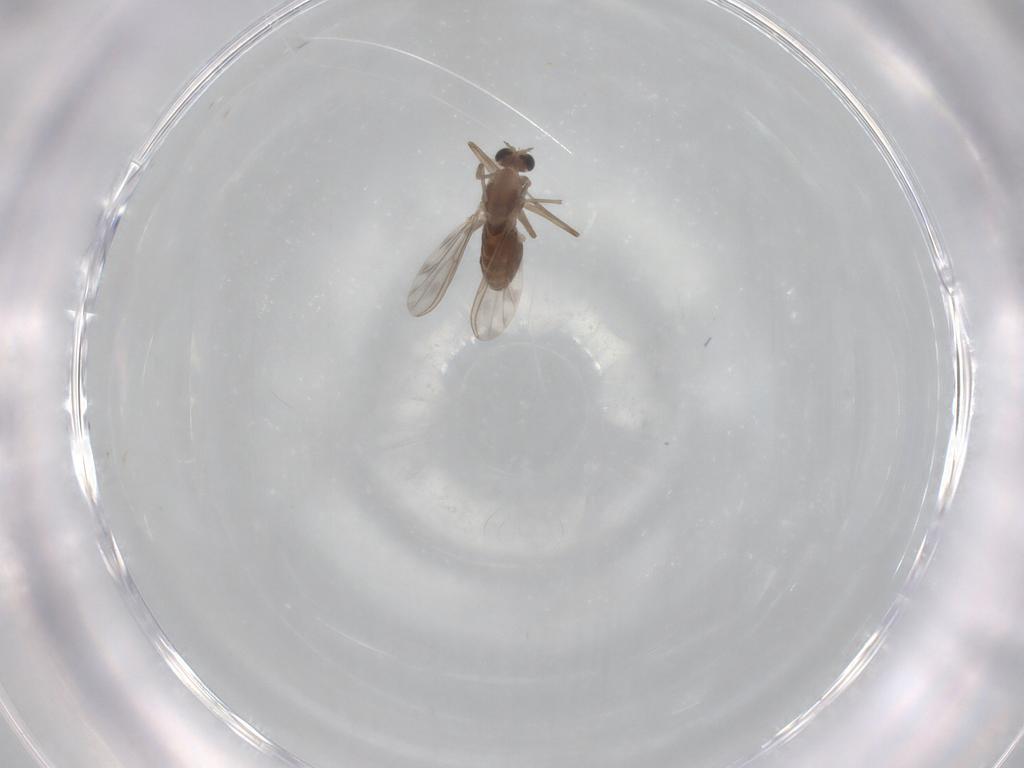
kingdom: Animalia
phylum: Arthropoda
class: Insecta
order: Diptera
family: Chironomidae
